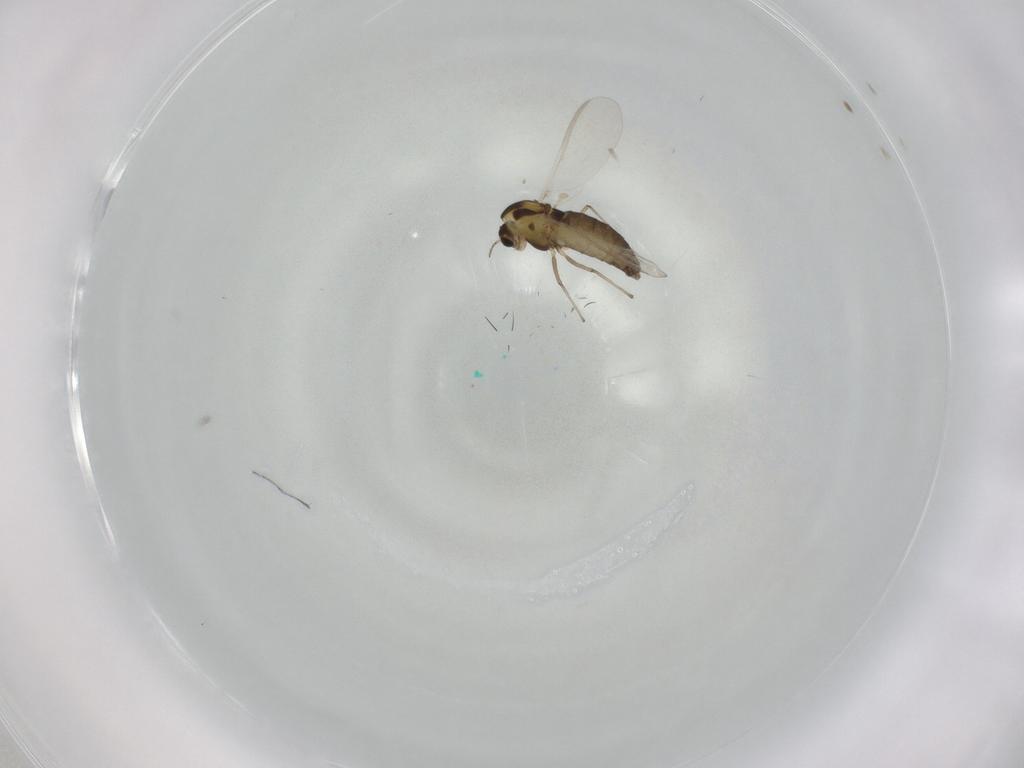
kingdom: Animalia
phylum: Arthropoda
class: Insecta
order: Diptera
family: Chironomidae
